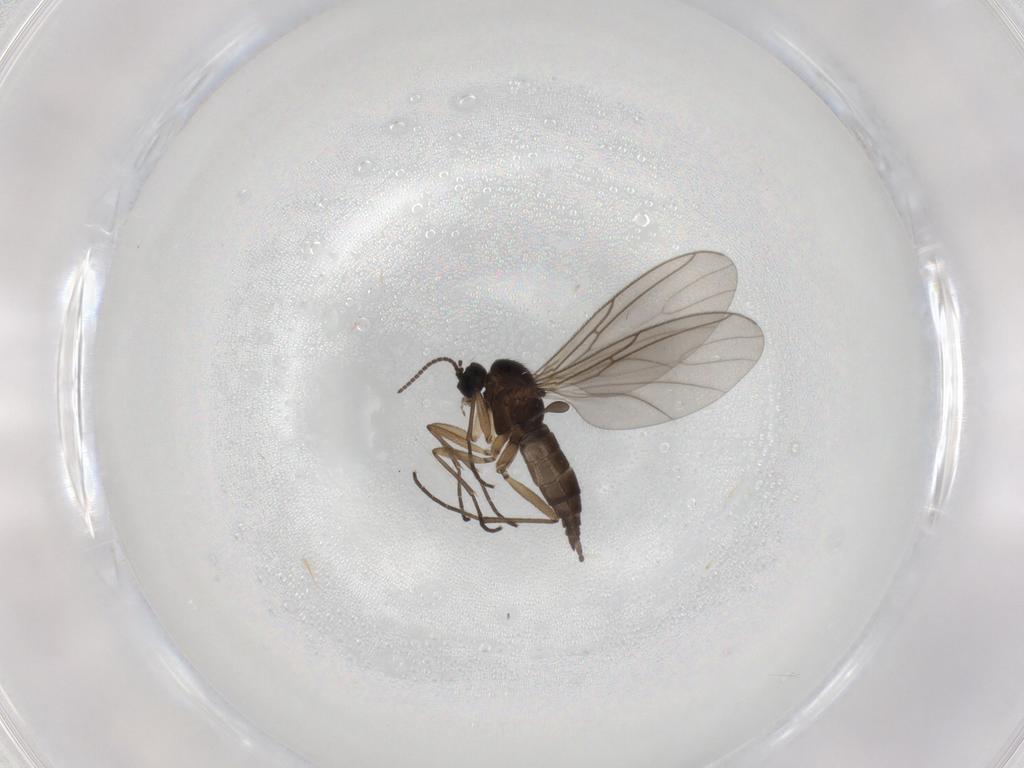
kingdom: Animalia
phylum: Arthropoda
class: Insecta
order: Diptera
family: Sciaridae
